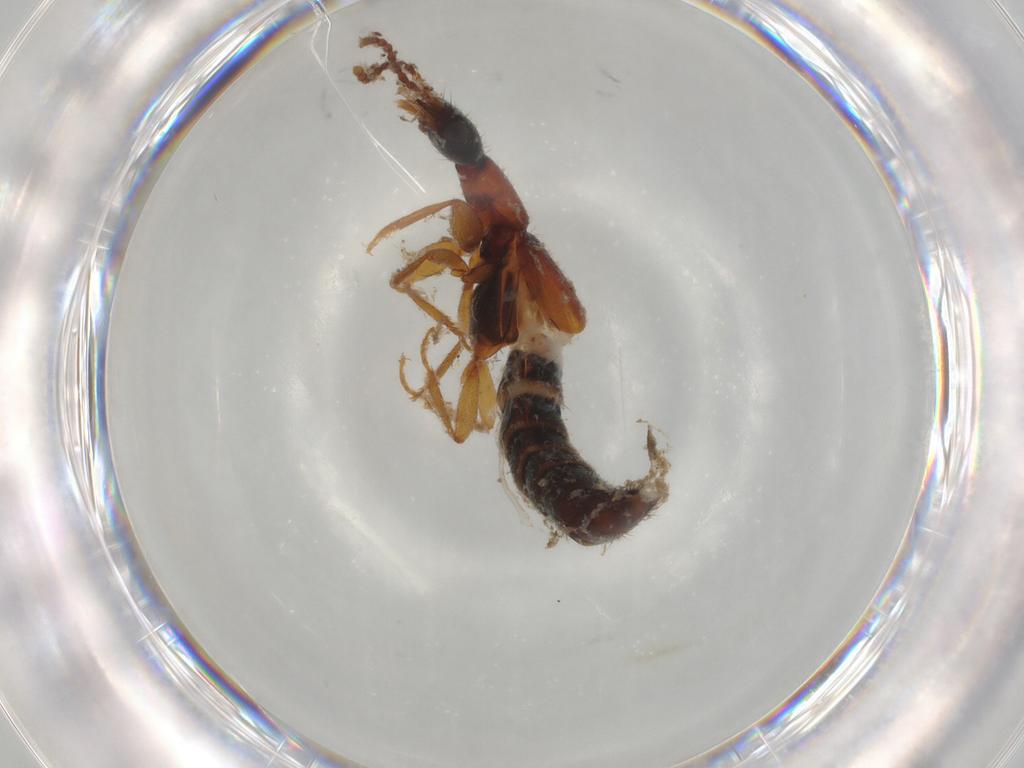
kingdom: Animalia
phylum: Arthropoda
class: Insecta
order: Coleoptera
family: Staphylinidae
